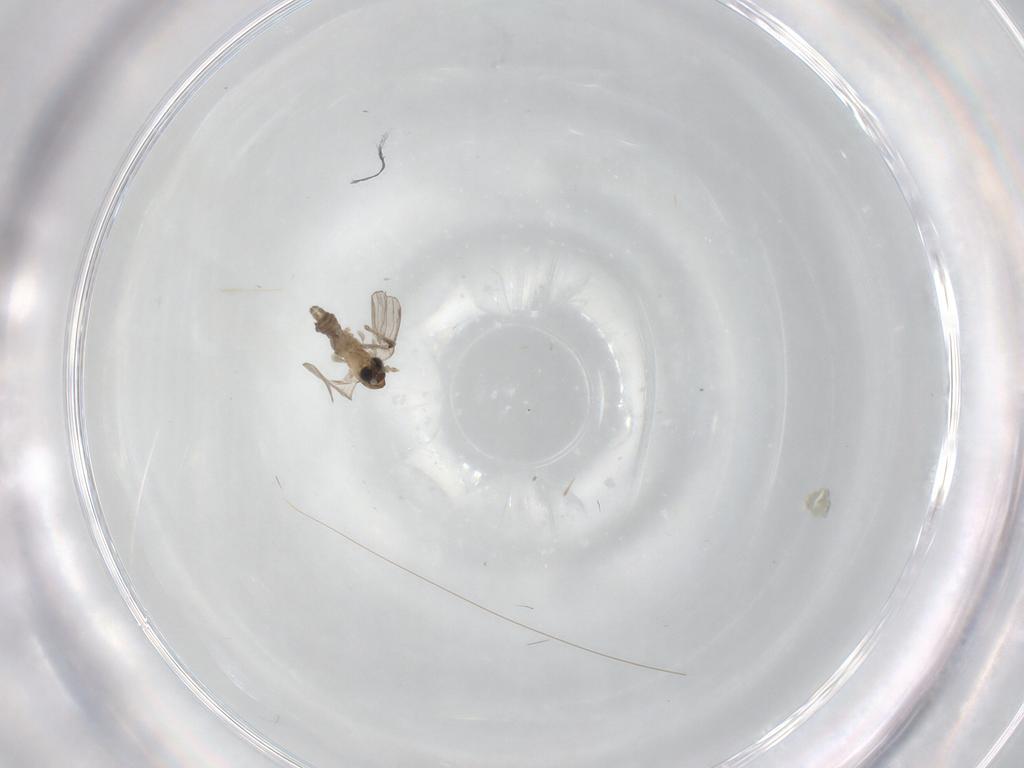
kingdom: Animalia
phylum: Arthropoda
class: Insecta
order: Diptera
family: Psychodidae
